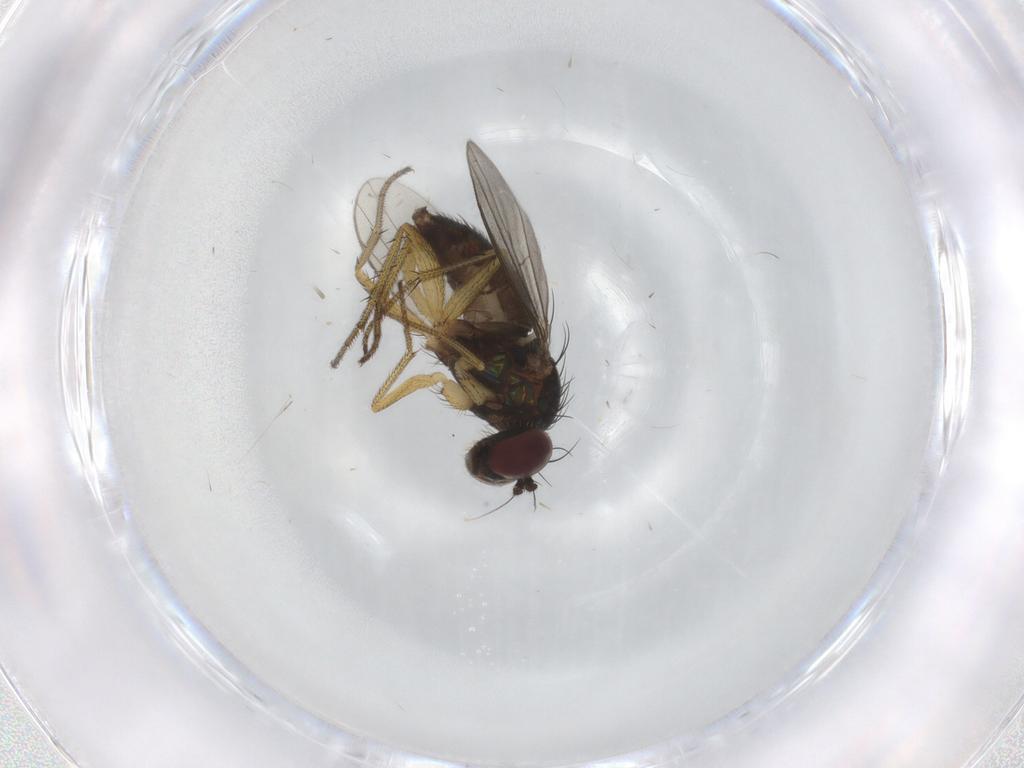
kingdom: Animalia
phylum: Arthropoda
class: Insecta
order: Diptera
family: Dolichopodidae
